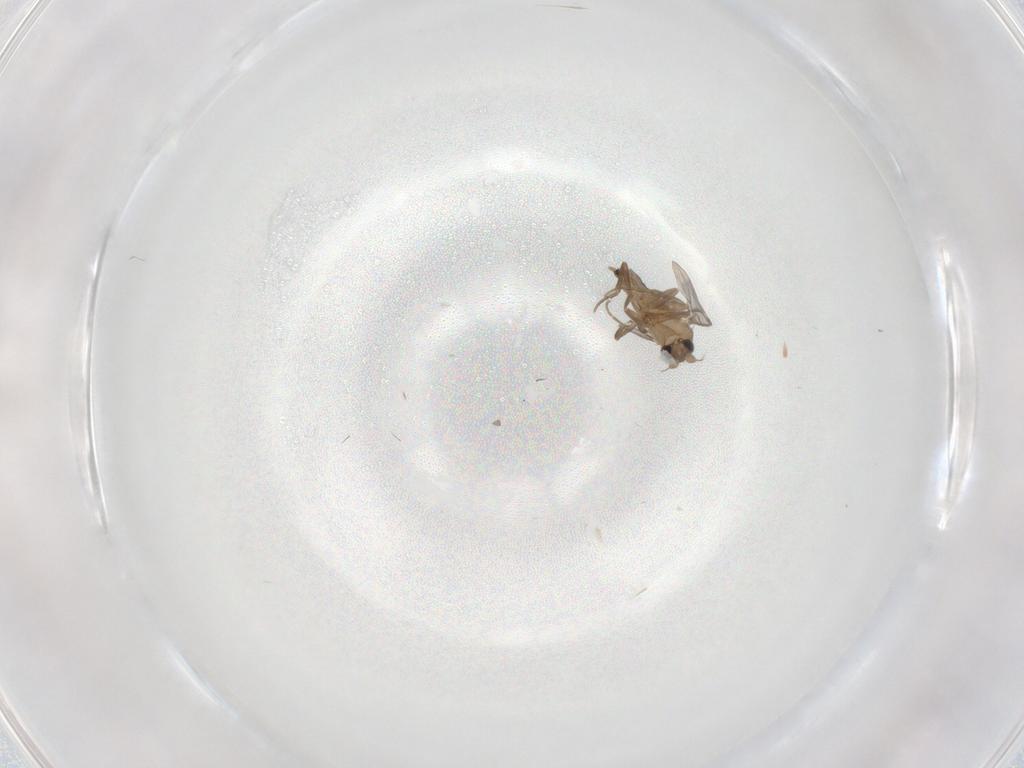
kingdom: Animalia
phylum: Arthropoda
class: Insecta
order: Diptera
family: Psychodidae
